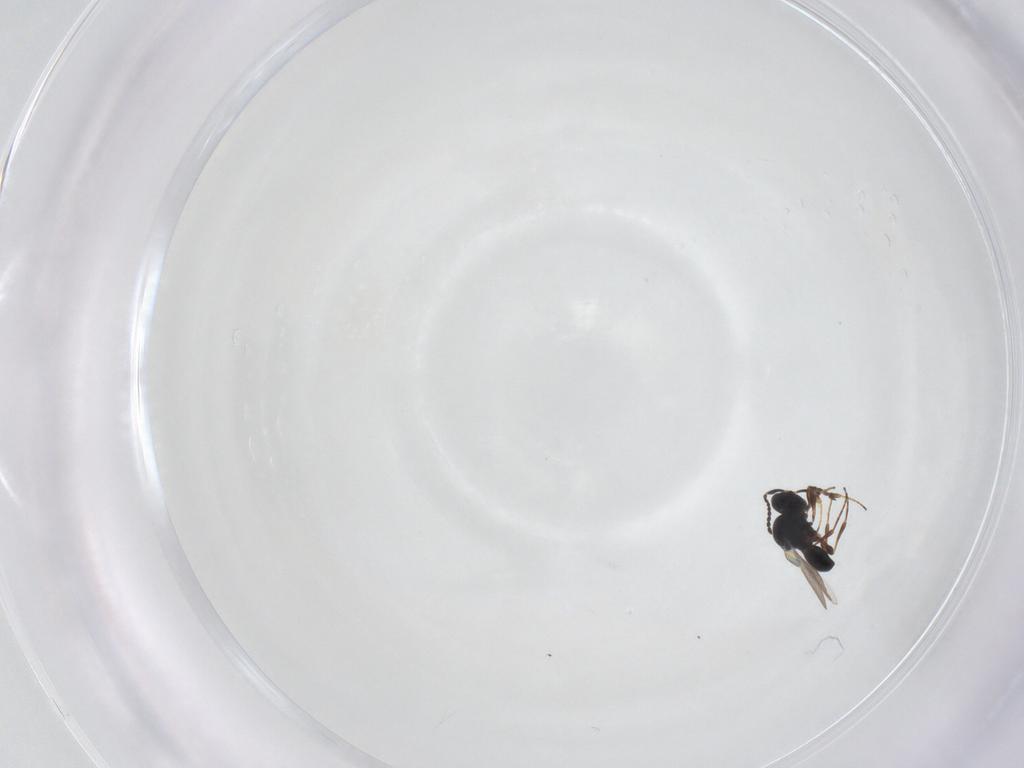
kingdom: Animalia
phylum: Arthropoda
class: Insecta
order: Hymenoptera
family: Platygastridae
